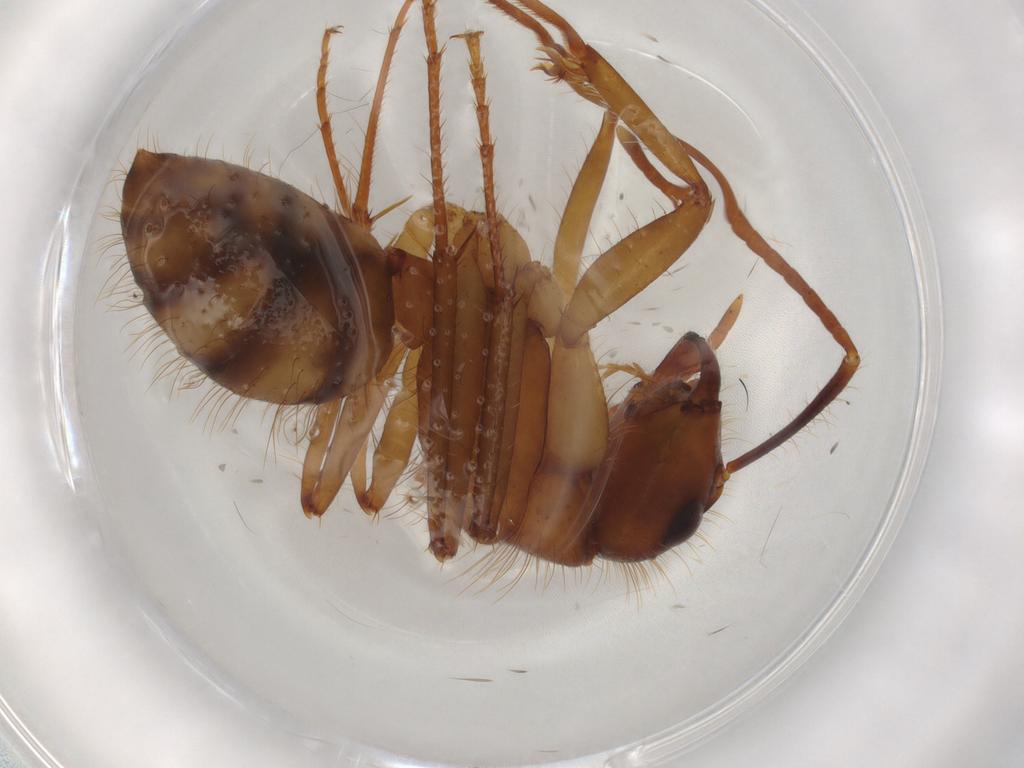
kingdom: Animalia
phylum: Arthropoda
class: Insecta
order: Hymenoptera
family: Formicidae
